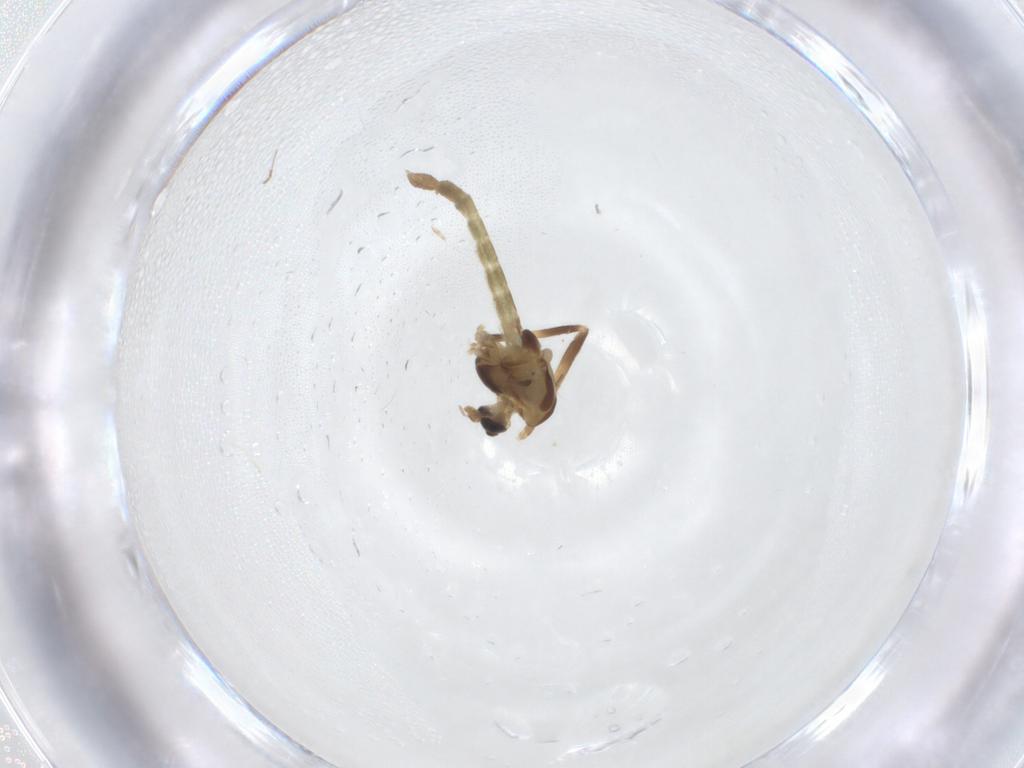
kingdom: Animalia
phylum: Arthropoda
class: Insecta
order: Diptera
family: Chironomidae
